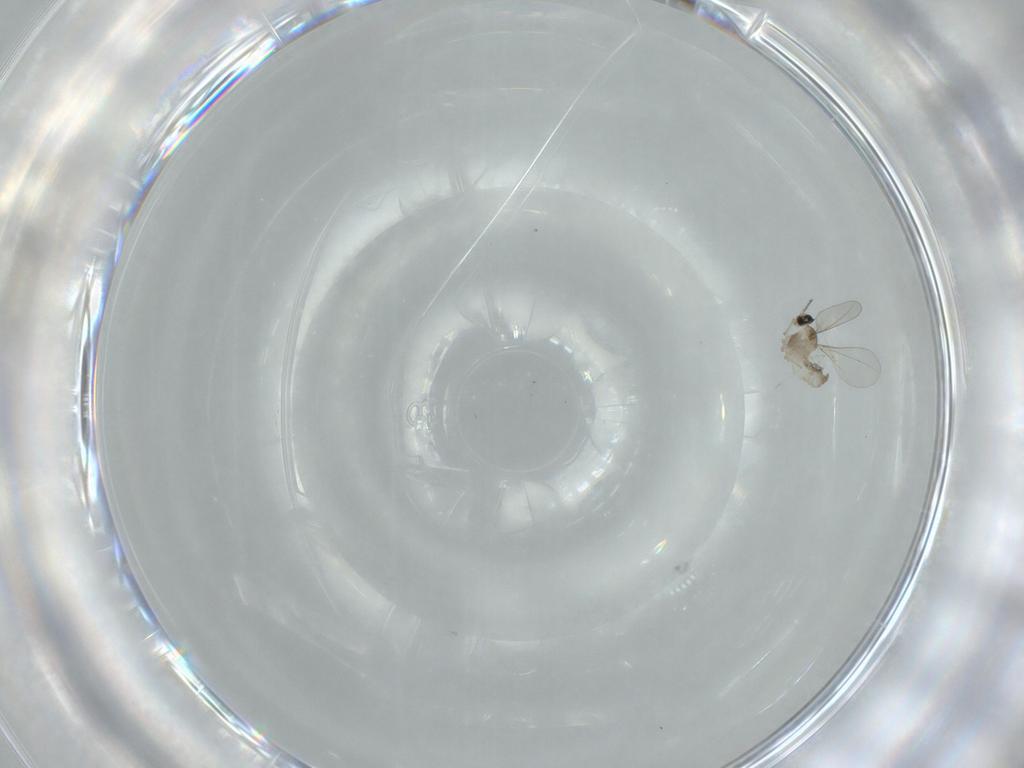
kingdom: Animalia
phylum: Arthropoda
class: Insecta
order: Diptera
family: Cecidomyiidae
